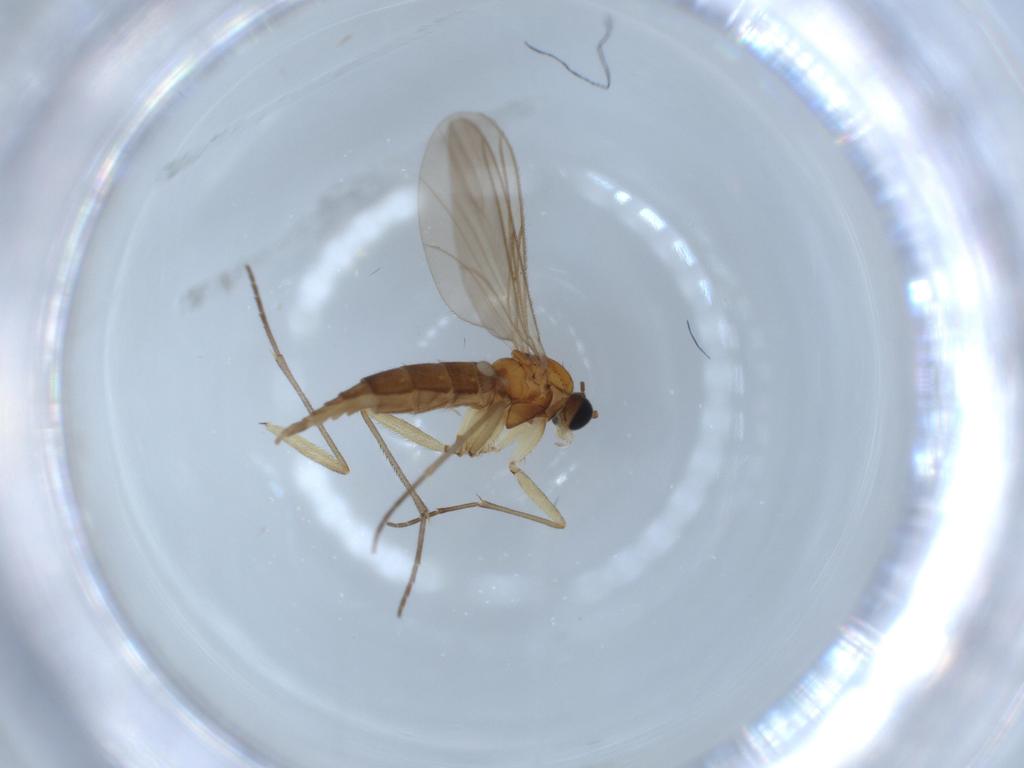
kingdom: Animalia
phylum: Arthropoda
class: Insecta
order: Diptera
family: Sciaridae
